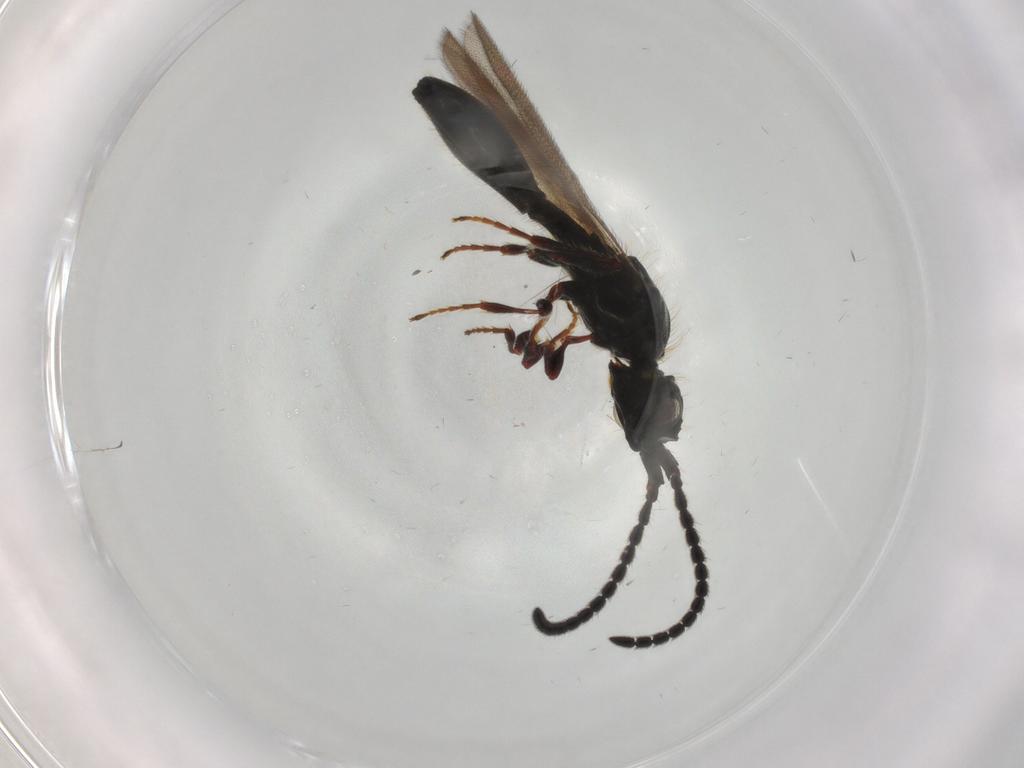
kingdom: Animalia
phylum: Arthropoda
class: Insecta
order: Hymenoptera
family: Diapriidae
